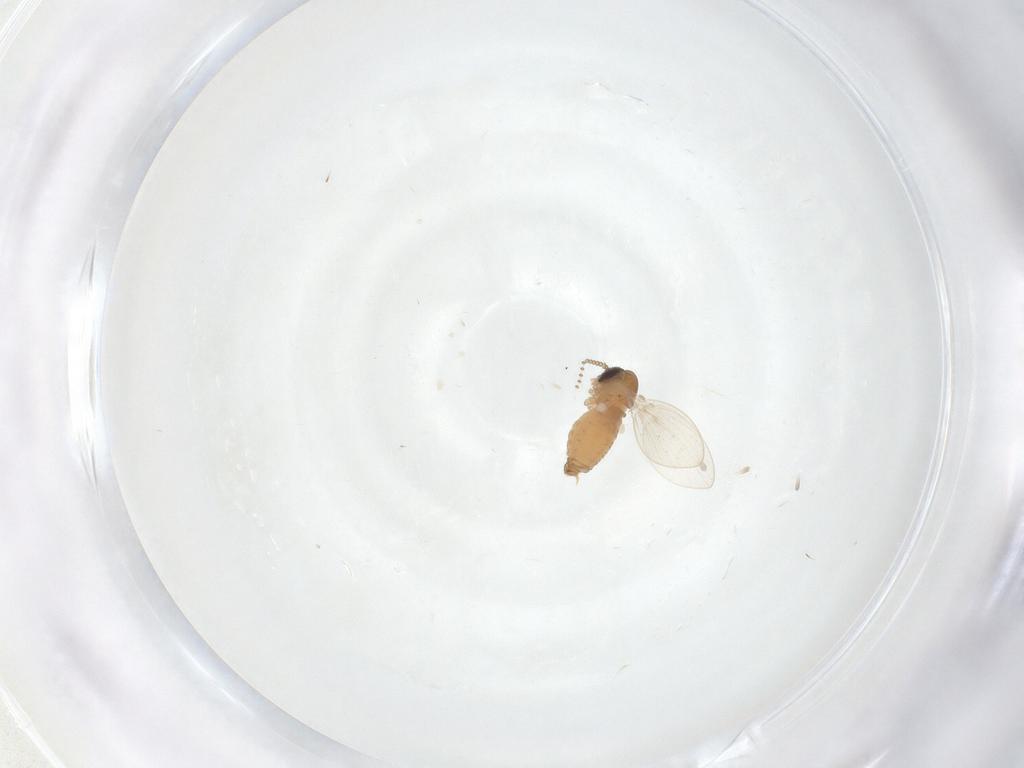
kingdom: Animalia
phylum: Arthropoda
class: Insecta
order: Diptera
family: Psychodidae
